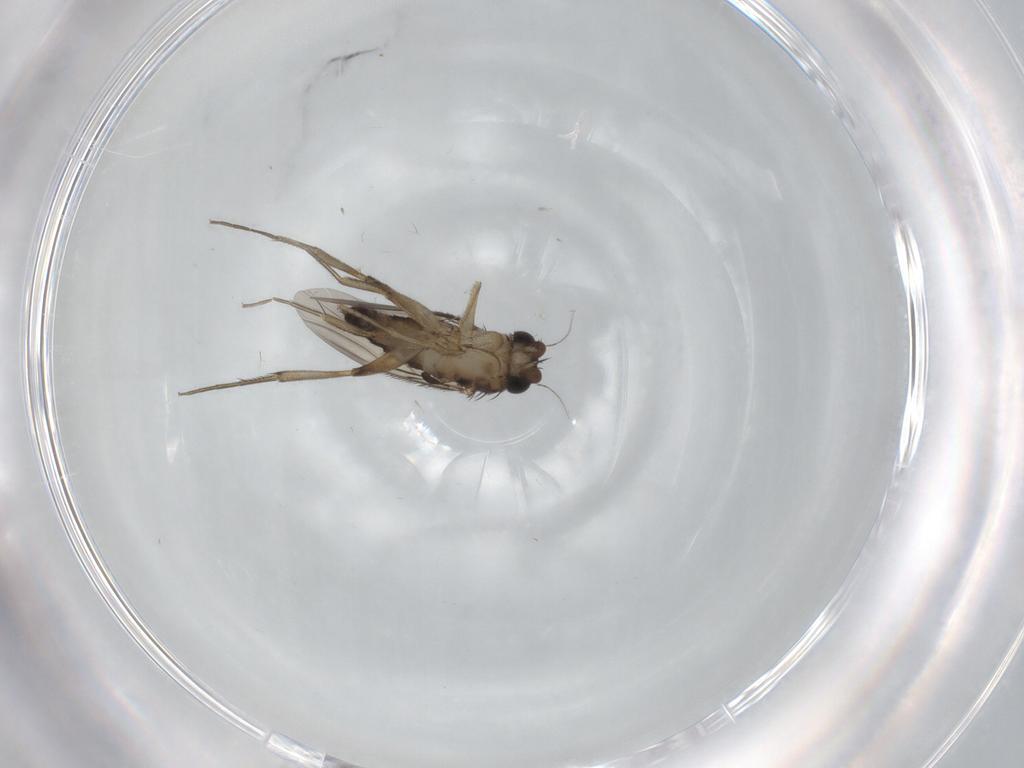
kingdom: Animalia
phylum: Arthropoda
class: Insecta
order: Diptera
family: Phoridae
